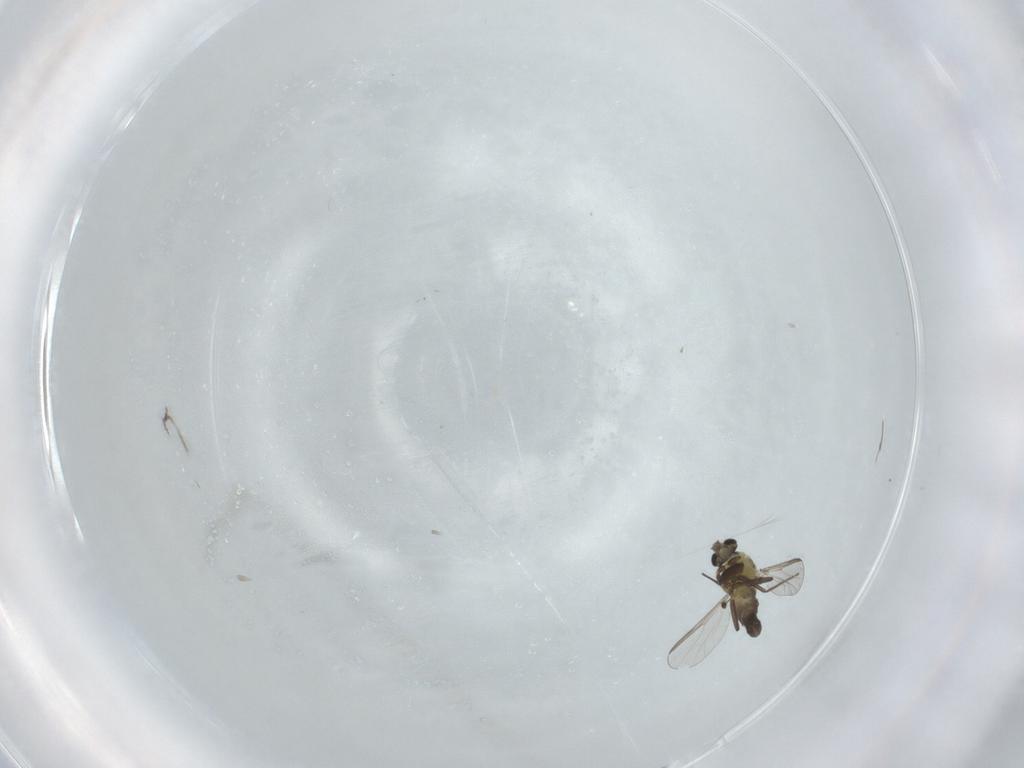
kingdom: Animalia
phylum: Arthropoda
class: Insecta
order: Diptera
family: Chironomidae
